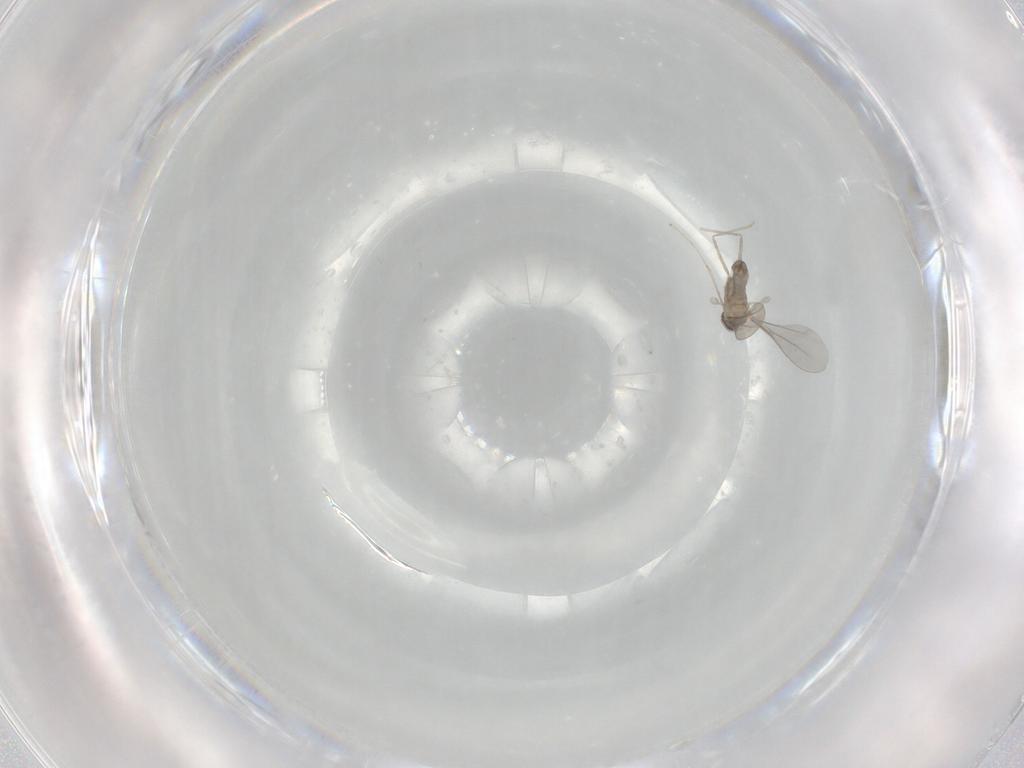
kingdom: Animalia
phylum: Arthropoda
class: Insecta
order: Diptera
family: Cecidomyiidae
